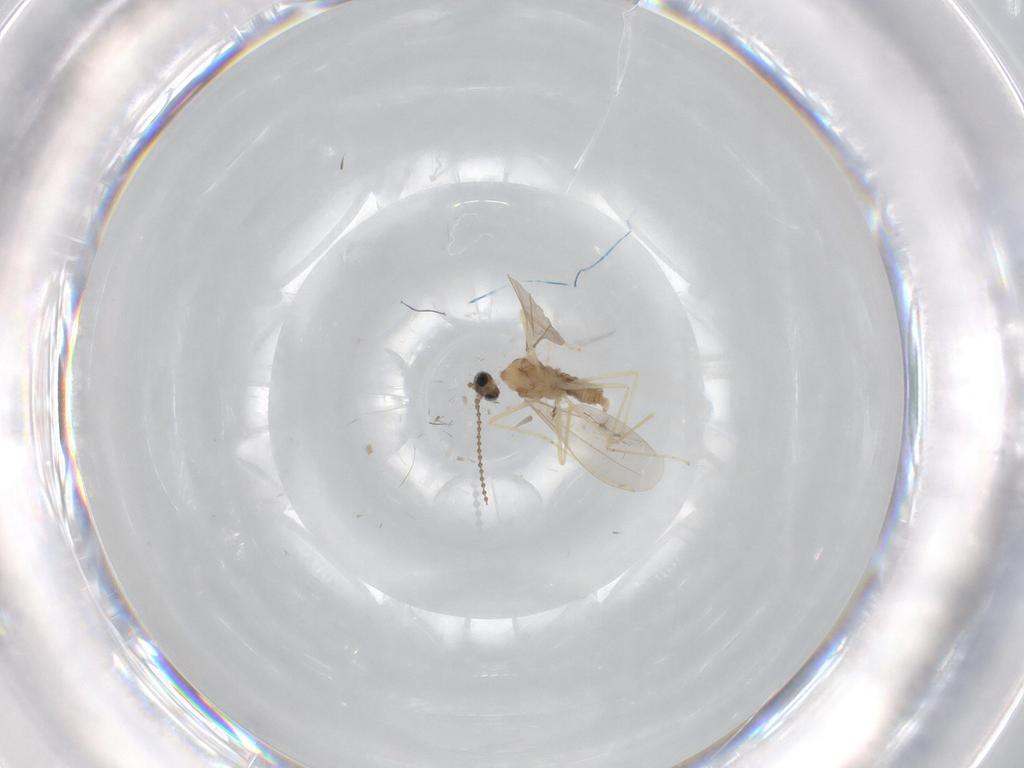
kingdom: Animalia
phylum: Arthropoda
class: Insecta
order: Diptera
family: Cecidomyiidae
